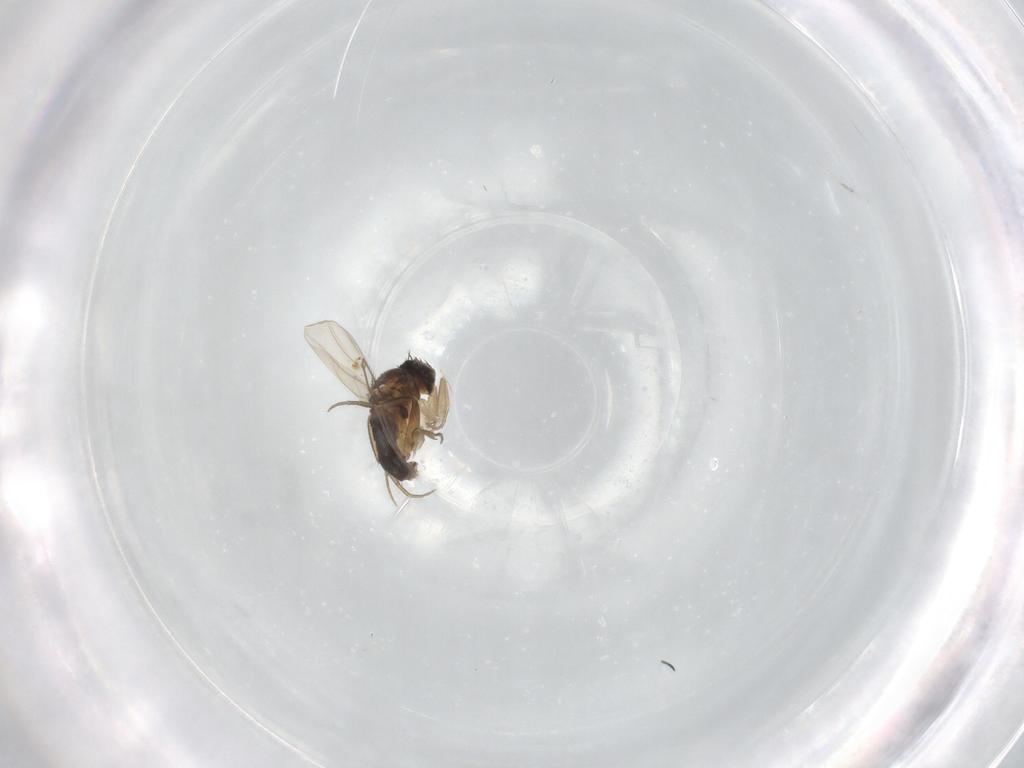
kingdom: Animalia
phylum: Arthropoda
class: Insecta
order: Diptera
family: Phoridae
